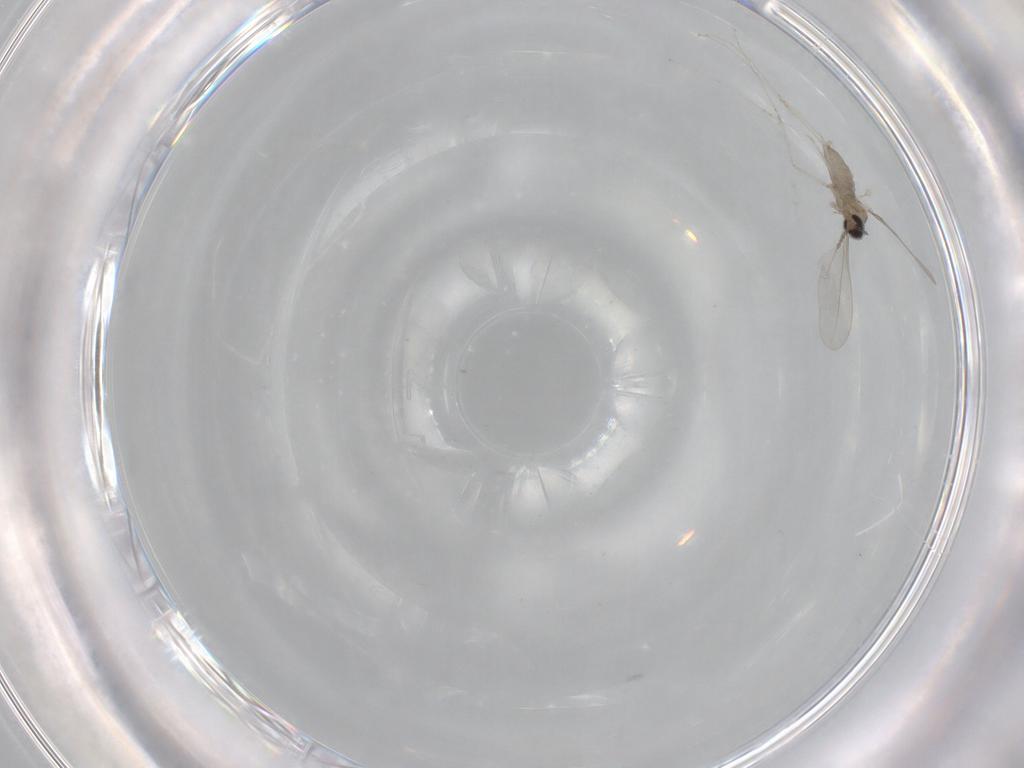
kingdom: Animalia
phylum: Arthropoda
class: Insecta
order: Diptera
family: Cecidomyiidae
